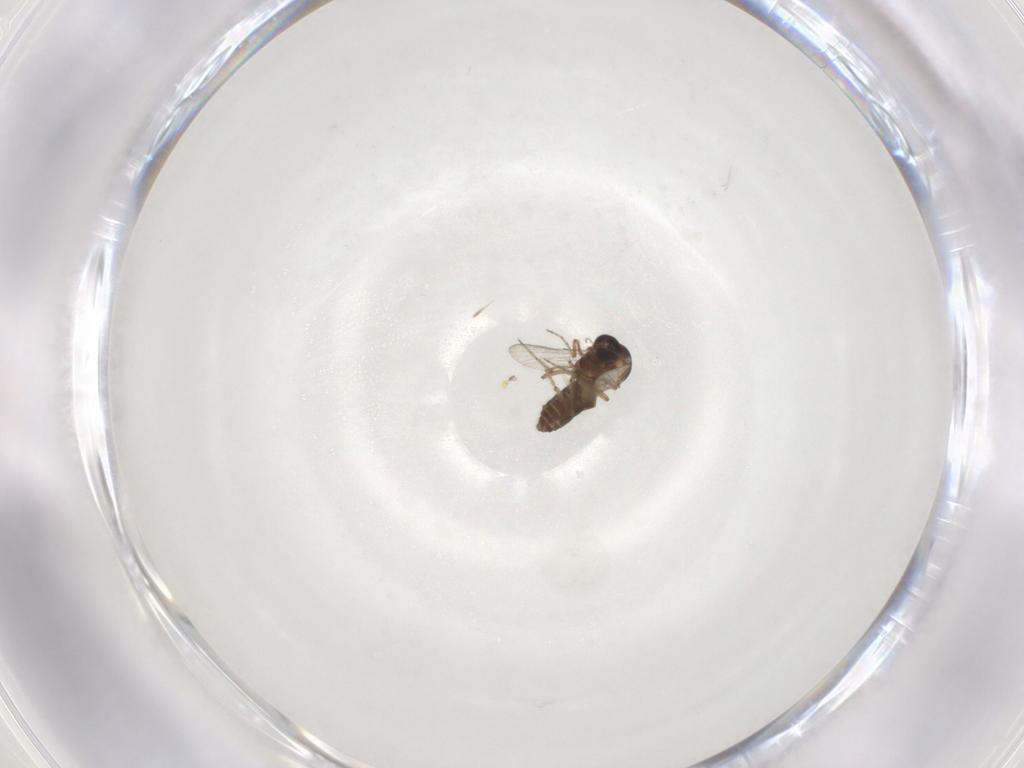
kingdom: Animalia
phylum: Arthropoda
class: Insecta
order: Diptera
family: Ceratopogonidae
